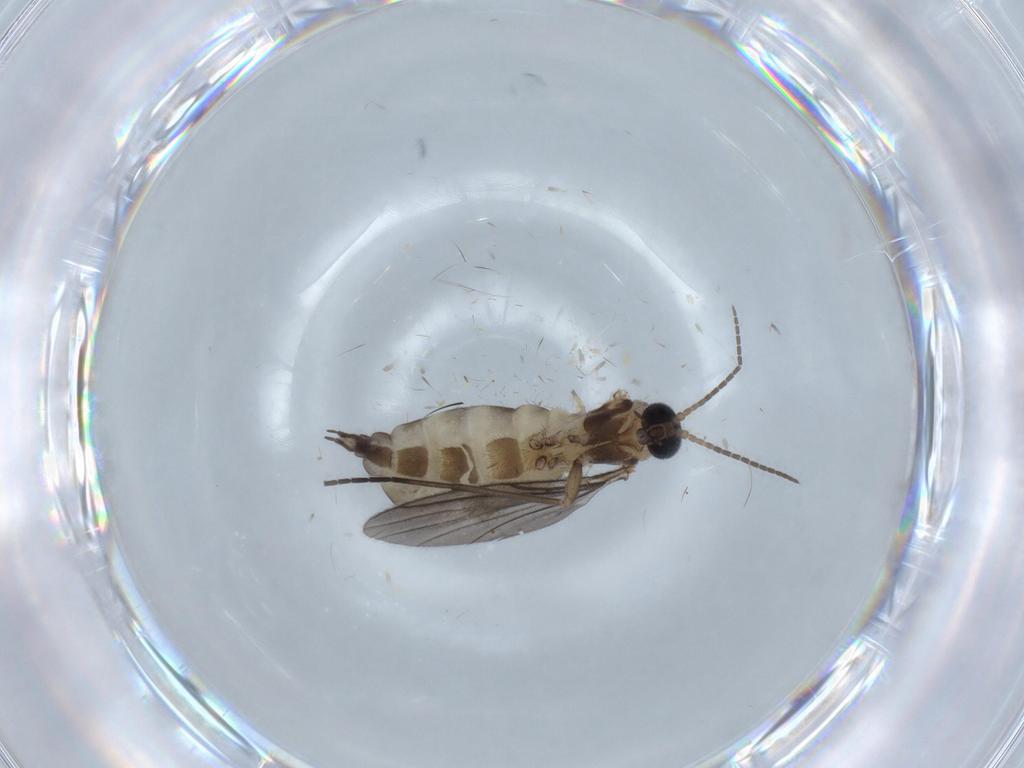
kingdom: Animalia
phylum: Arthropoda
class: Insecta
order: Diptera
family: Sciaridae
